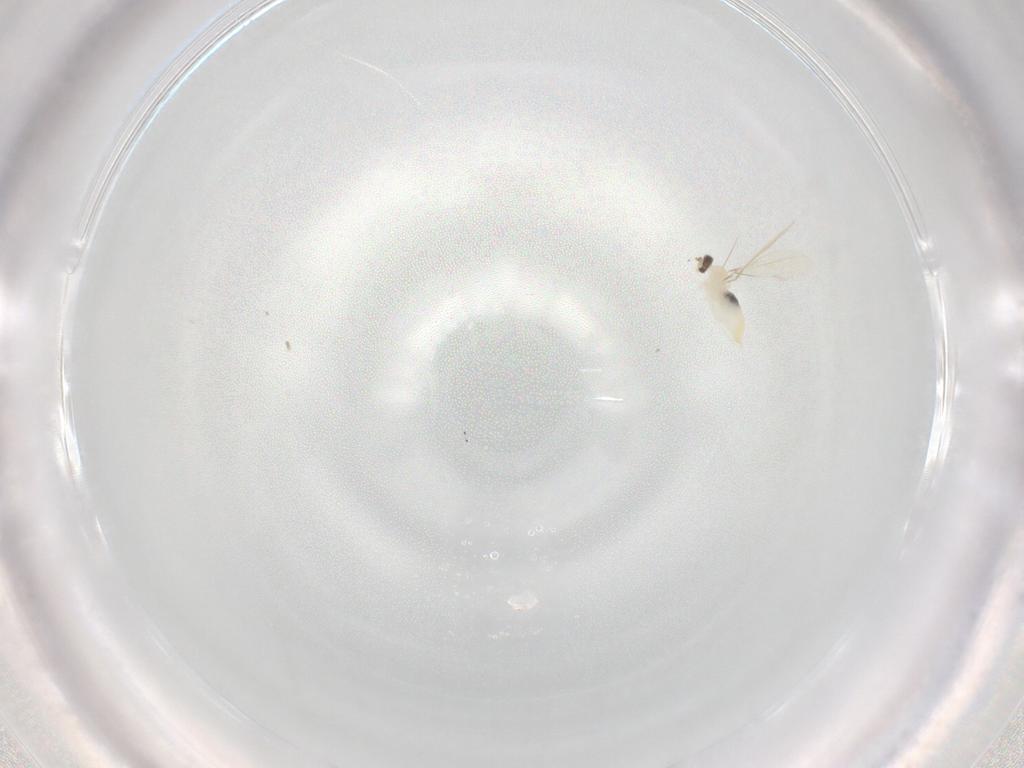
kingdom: Animalia
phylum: Arthropoda
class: Insecta
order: Diptera
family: Cecidomyiidae
